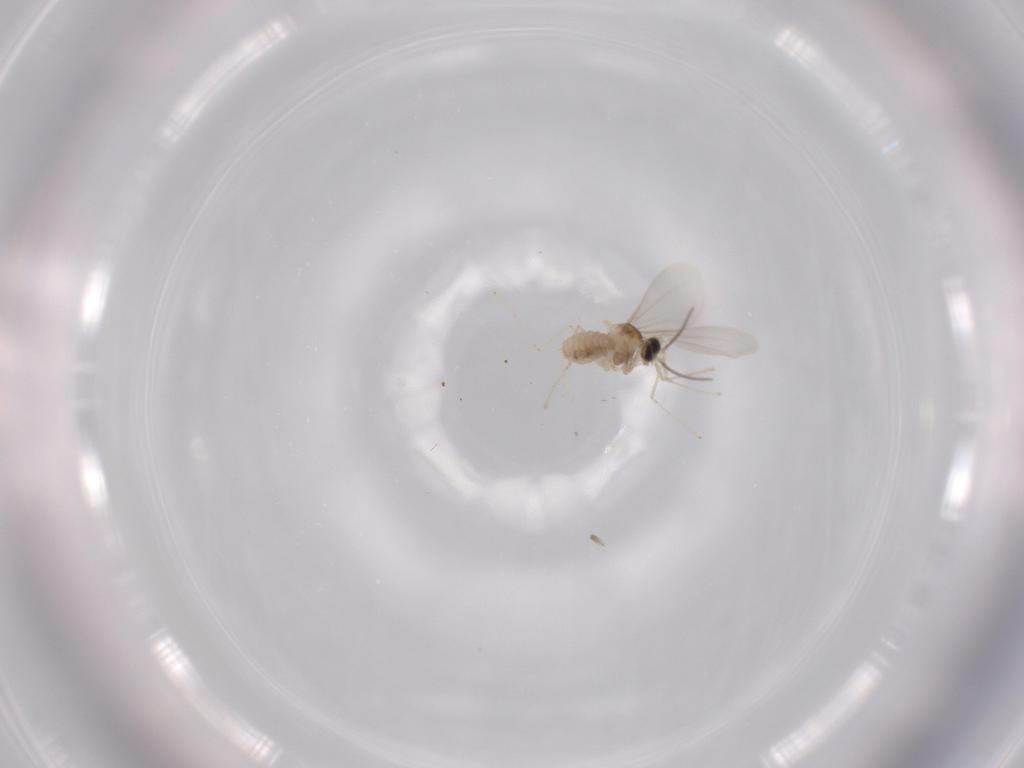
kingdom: Animalia
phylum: Arthropoda
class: Insecta
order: Diptera
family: Cecidomyiidae
